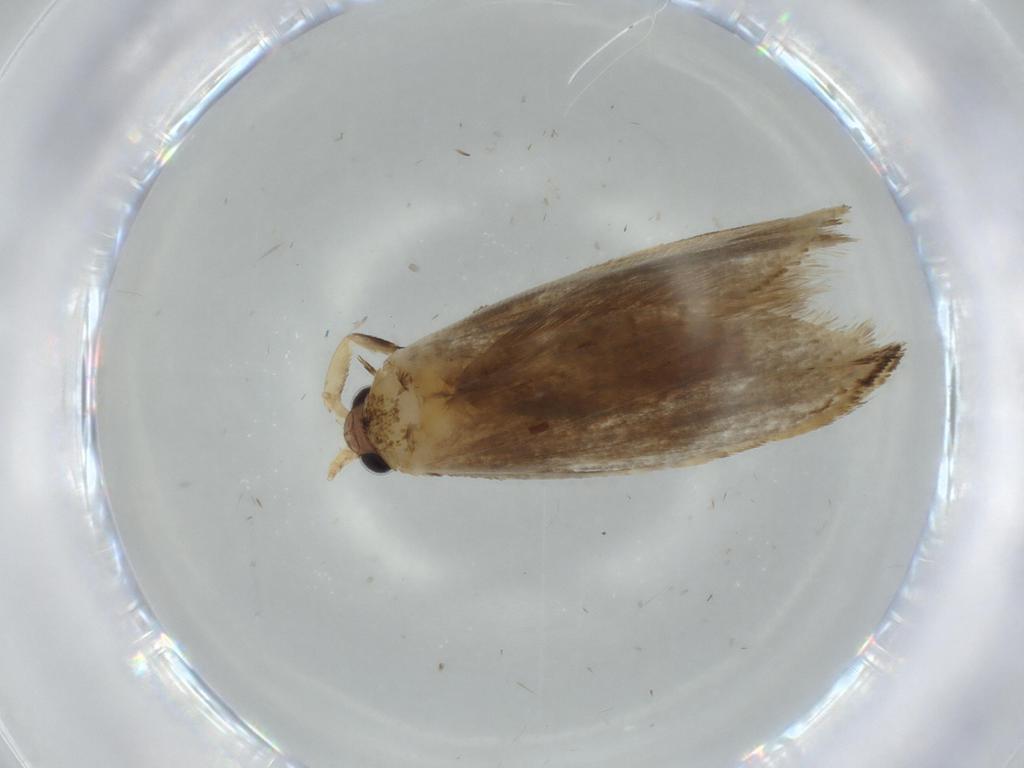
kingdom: Animalia
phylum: Arthropoda
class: Insecta
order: Lepidoptera
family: Tineidae
